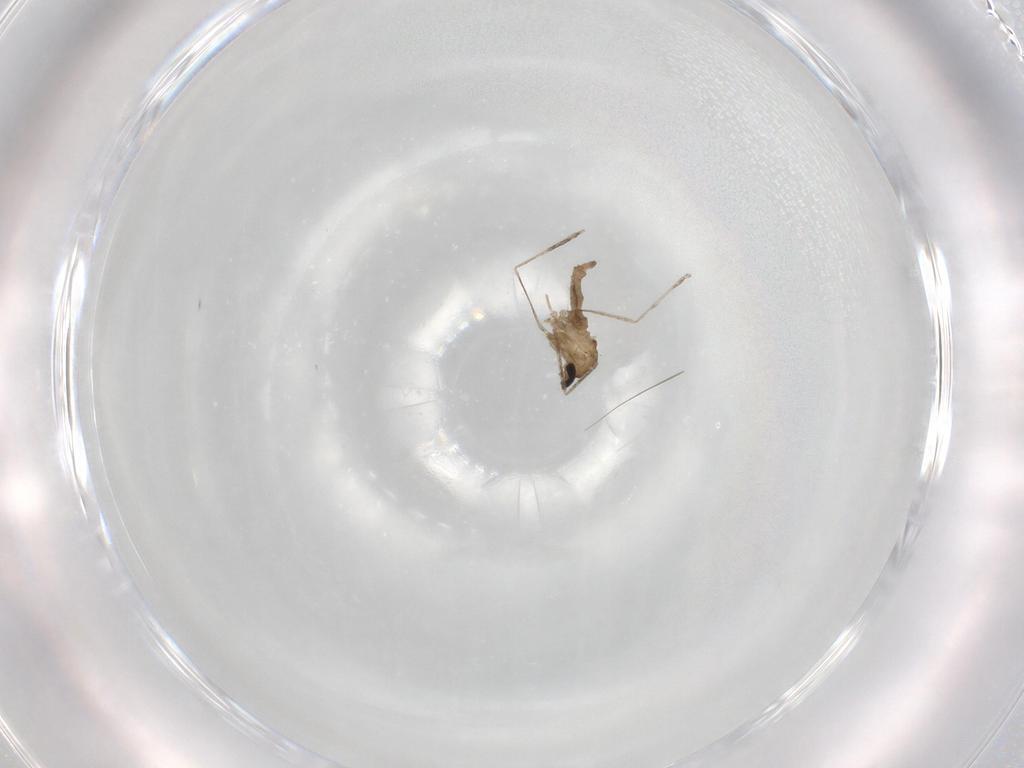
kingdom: Animalia
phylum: Arthropoda
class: Insecta
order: Diptera
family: Cecidomyiidae
